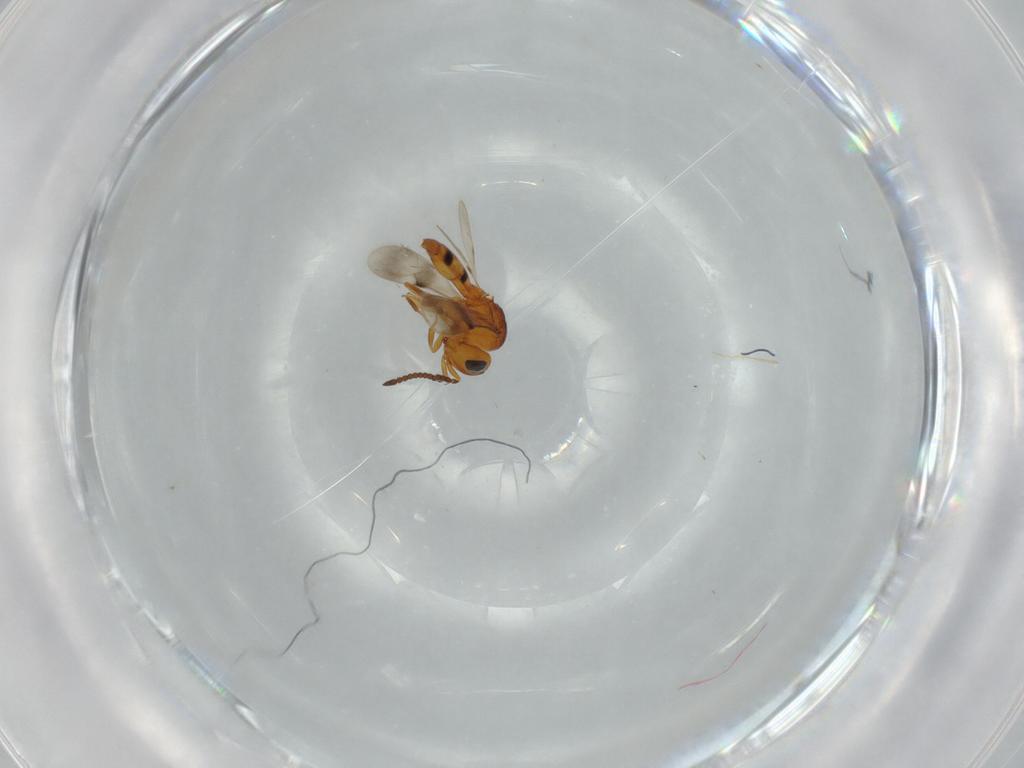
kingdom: Animalia
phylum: Arthropoda
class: Insecta
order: Hymenoptera
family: Scelionidae
